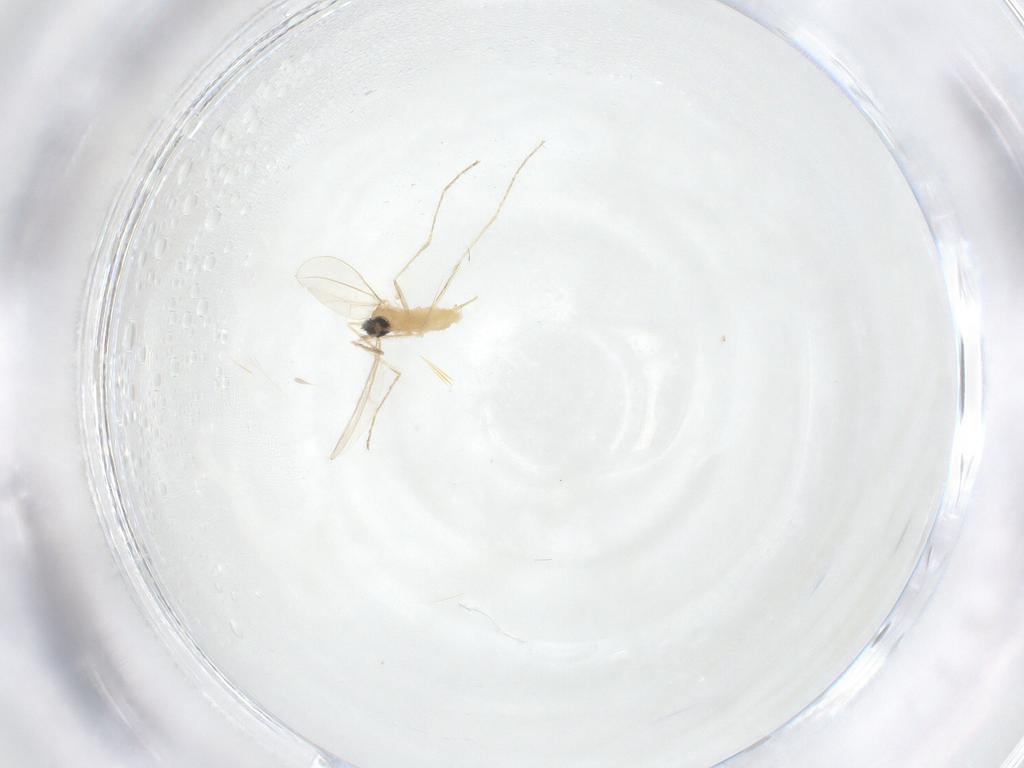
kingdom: Animalia
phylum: Arthropoda
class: Insecta
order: Diptera
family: Cecidomyiidae
